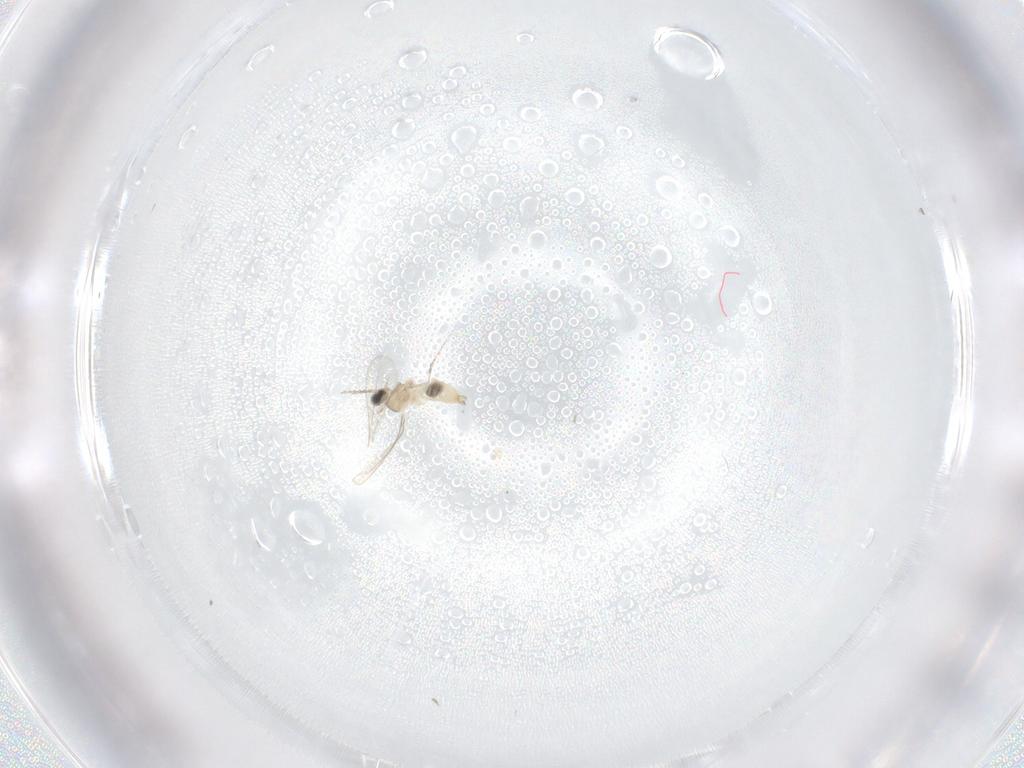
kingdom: Animalia
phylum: Arthropoda
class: Insecta
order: Diptera
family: Cecidomyiidae
